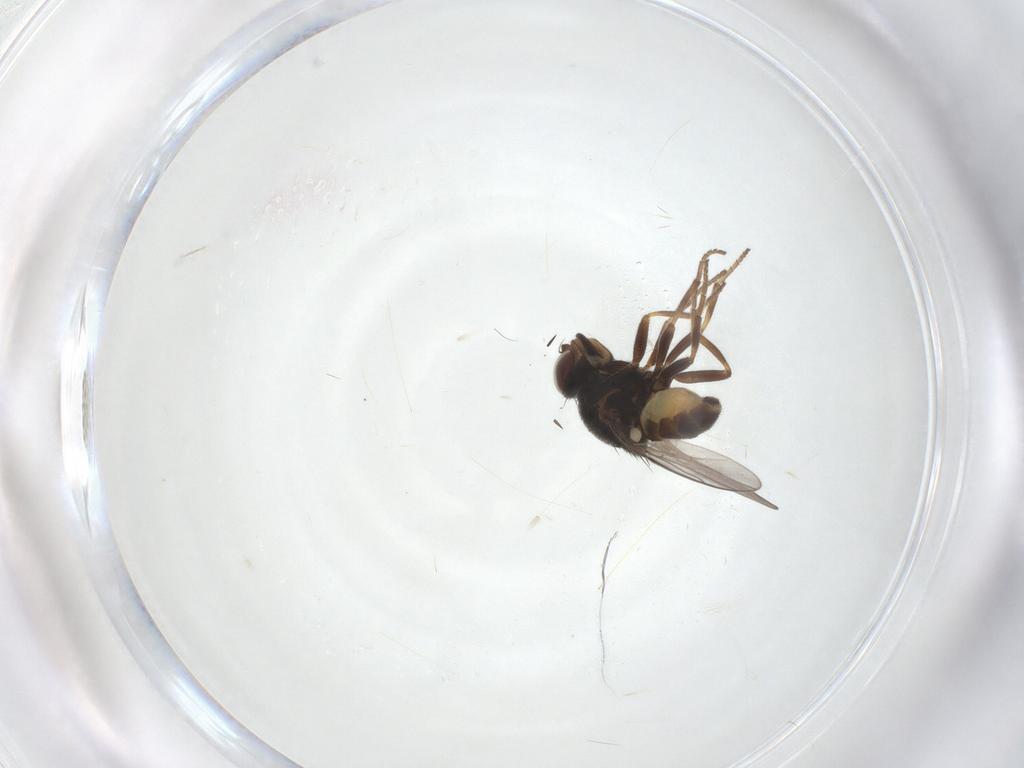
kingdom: Animalia
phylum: Arthropoda
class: Insecta
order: Diptera
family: Chloropidae
